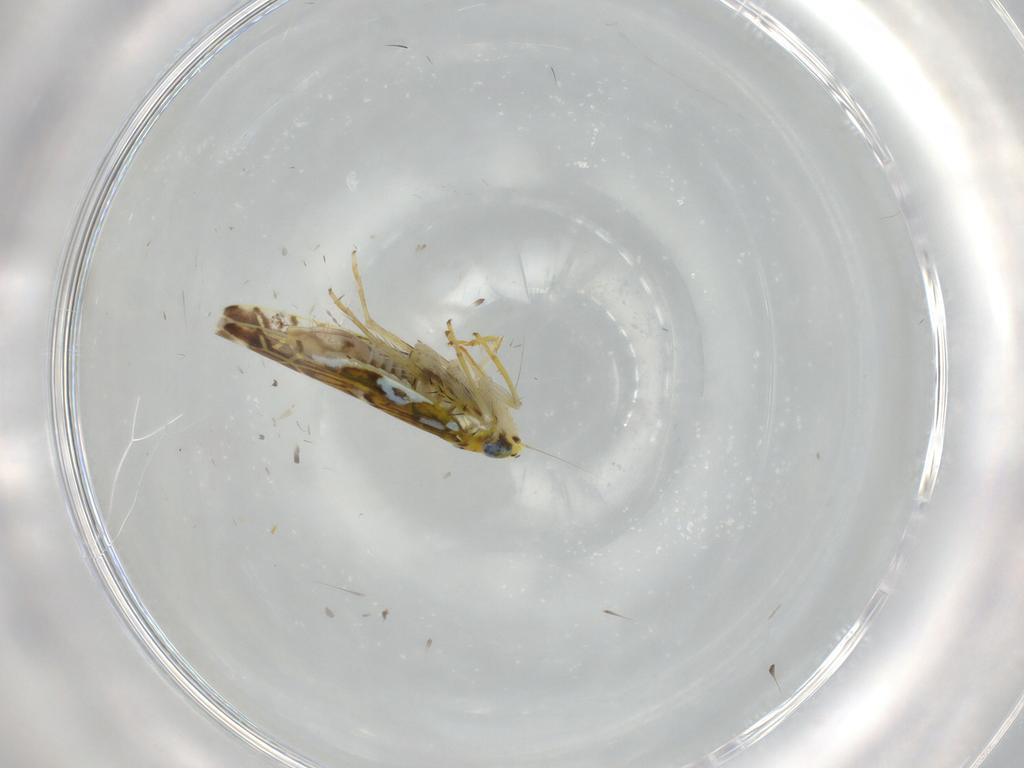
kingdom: Animalia
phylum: Arthropoda
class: Insecta
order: Hemiptera
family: Cicadellidae
